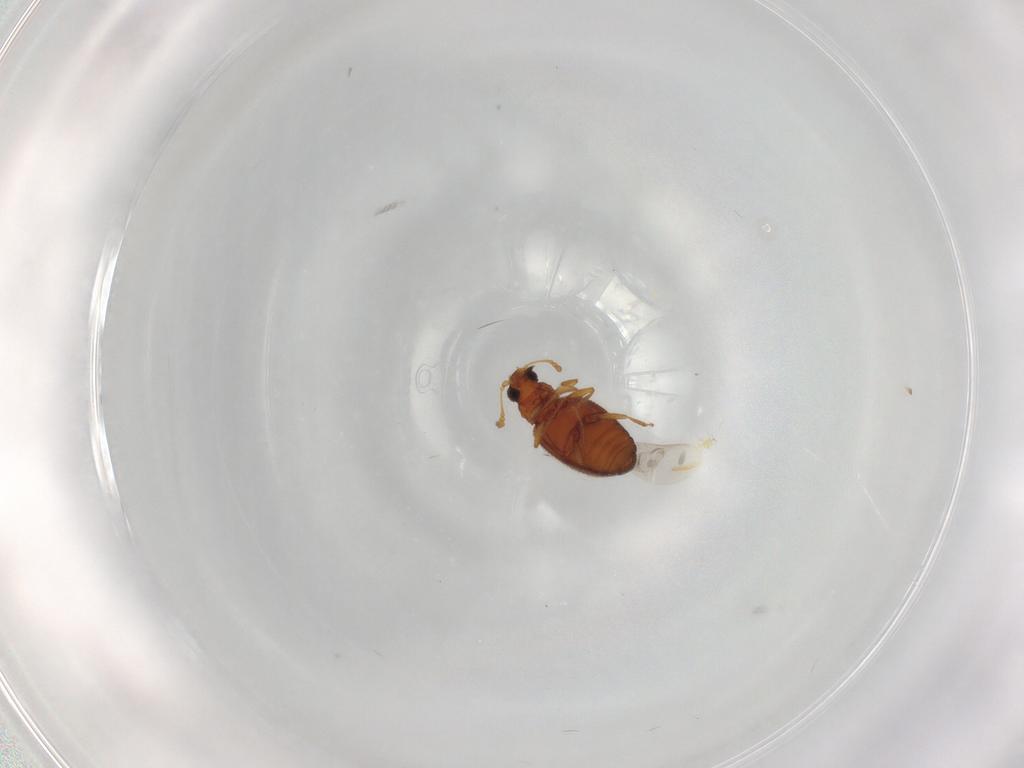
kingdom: Animalia
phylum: Arthropoda
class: Insecta
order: Coleoptera
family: Latridiidae
